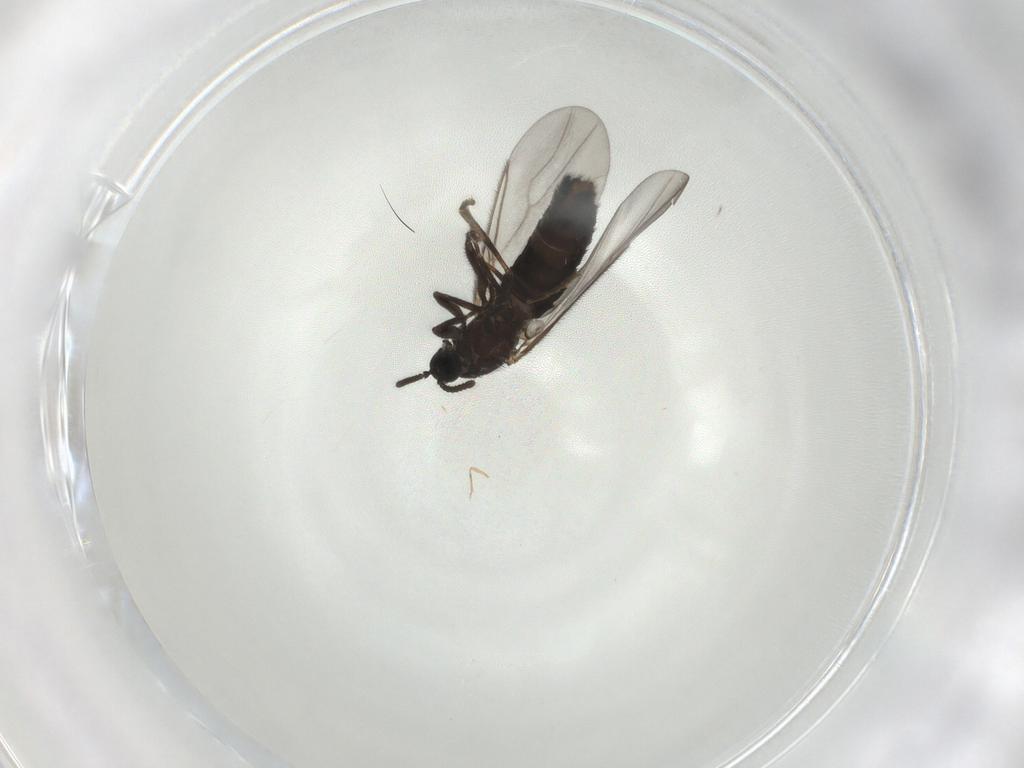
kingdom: Animalia
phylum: Arthropoda
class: Insecta
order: Diptera
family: Scatopsidae
